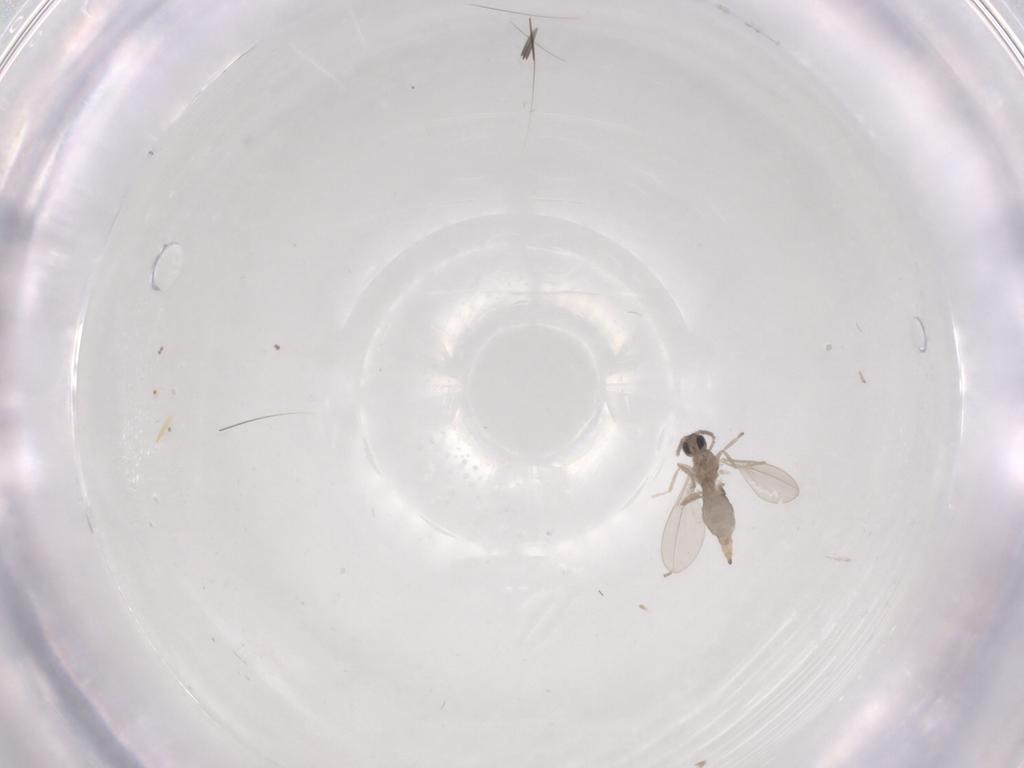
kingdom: Animalia
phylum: Arthropoda
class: Insecta
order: Diptera
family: Cecidomyiidae
